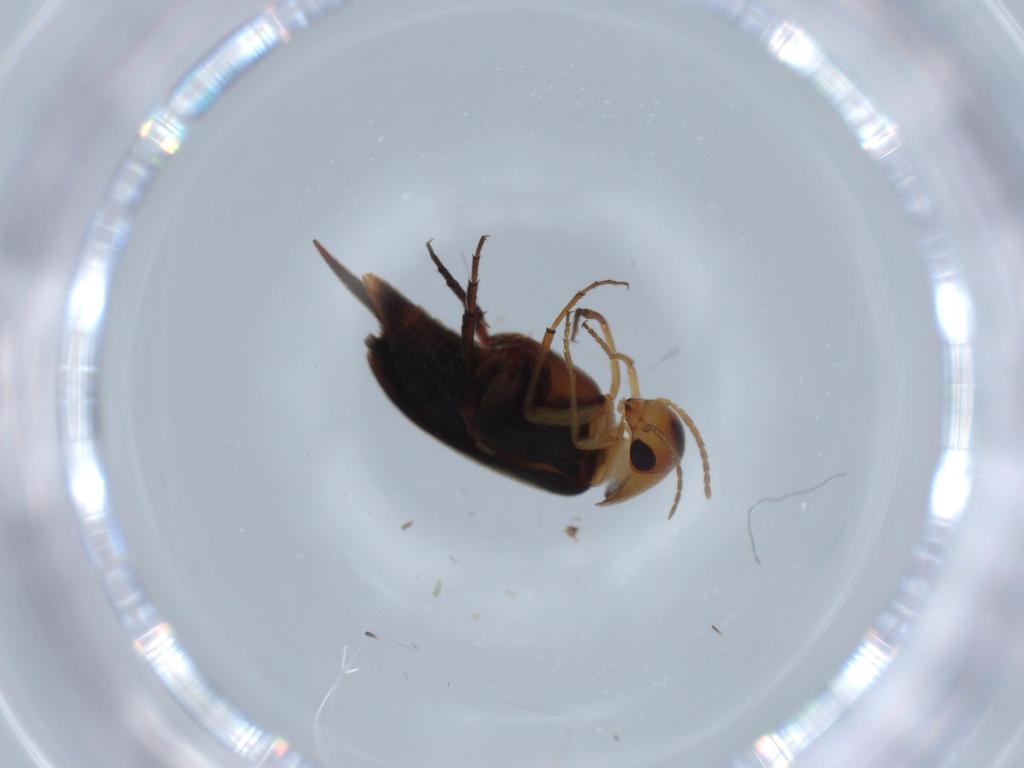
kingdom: Animalia
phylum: Arthropoda
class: Insecta
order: Coleoptera
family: Mordellidae
